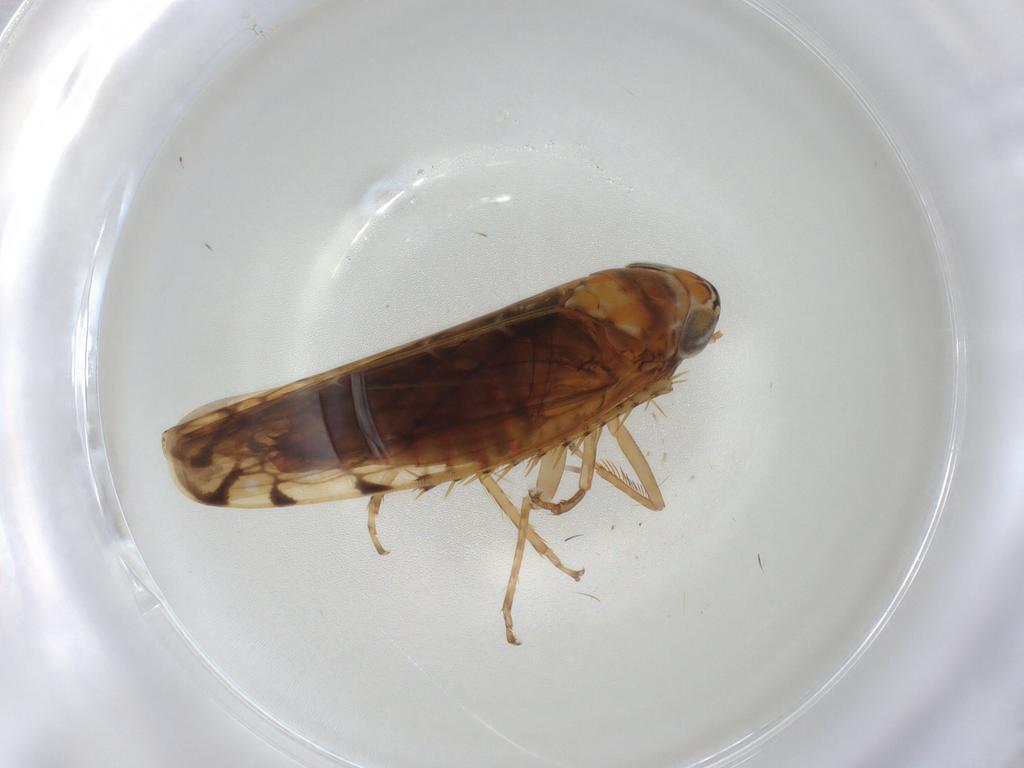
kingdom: Animalia
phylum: Arthropoda
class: Insecta
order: Hemiptera
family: Cicadellidae
